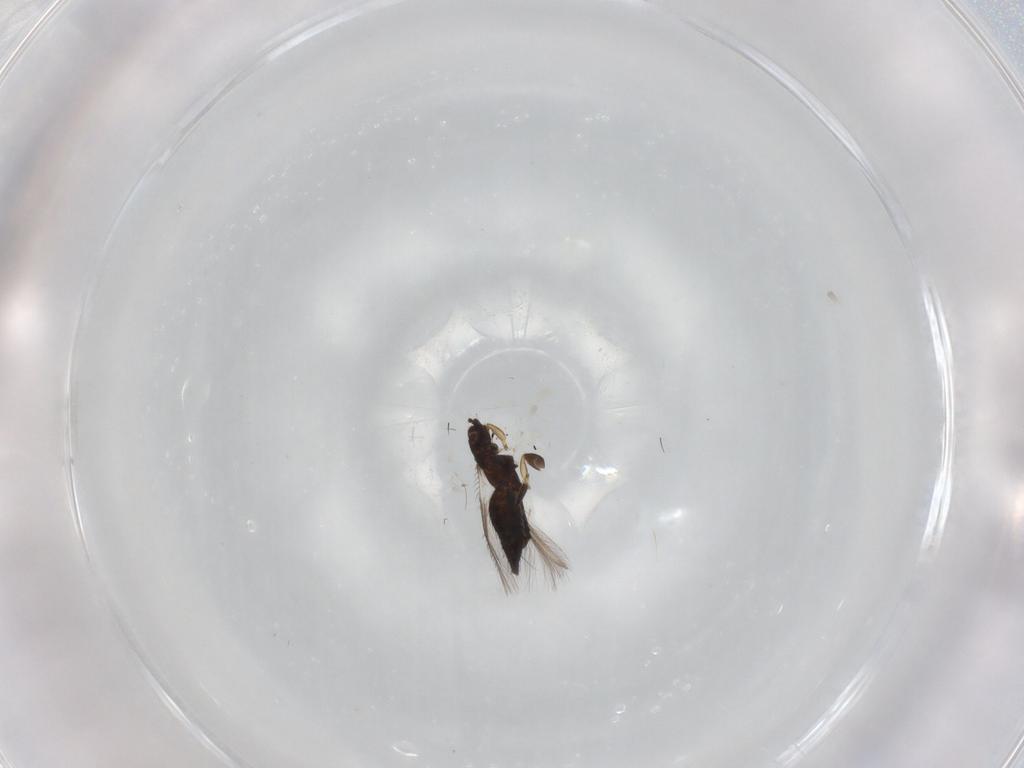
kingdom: Animalia
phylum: Arthropoda
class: Insecta
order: Thysanoptera
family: Thripidae
